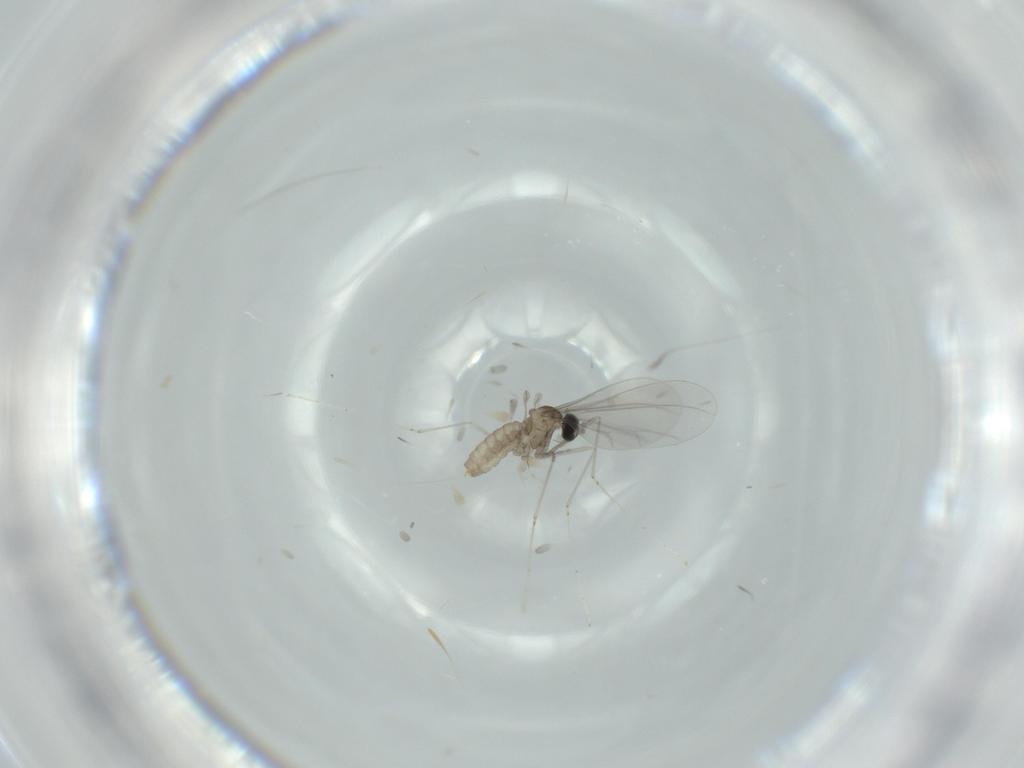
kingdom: Animalia
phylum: Arthropoda
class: Insecta
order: Diptera
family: Cecidomyiidae
